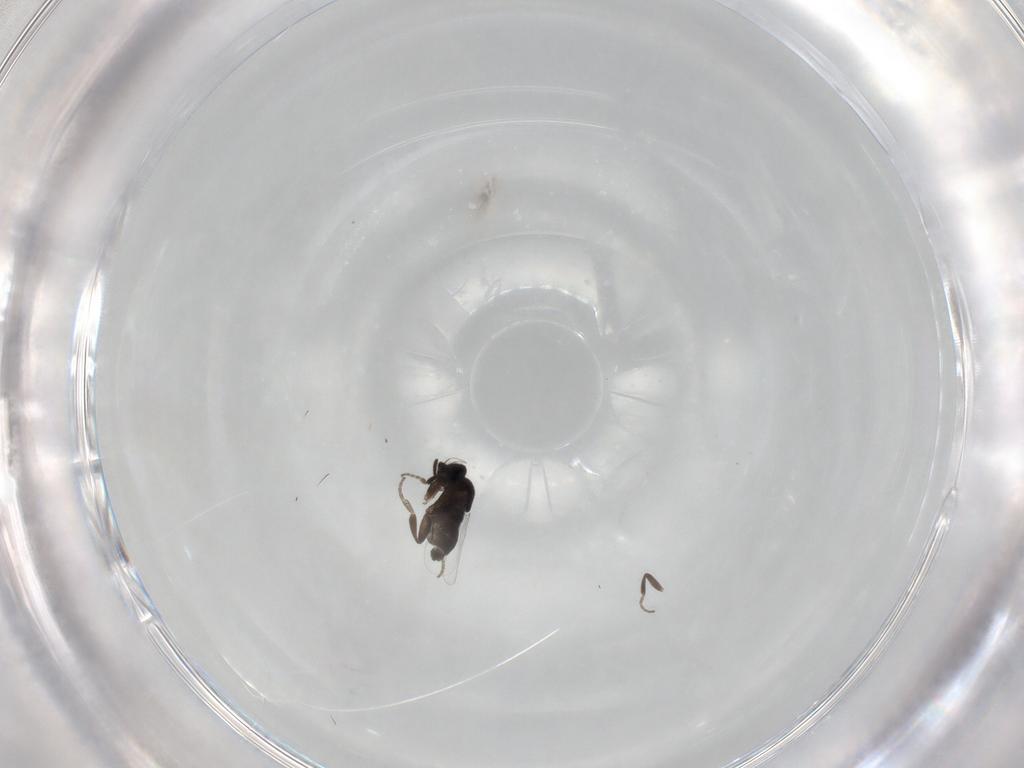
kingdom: Animalia
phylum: Arthropoda
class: Insecta
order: Diptera
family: Phoridae
